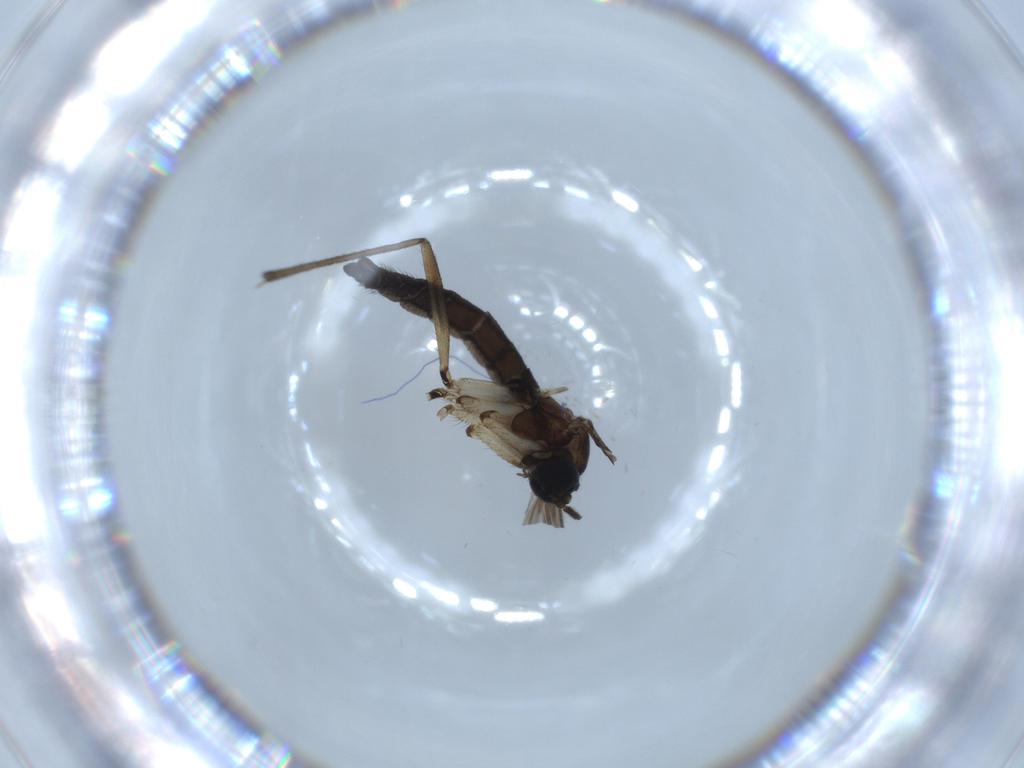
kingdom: Animalia
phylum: Arthropoda
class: Insecta
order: Diptera
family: Sciaridae
